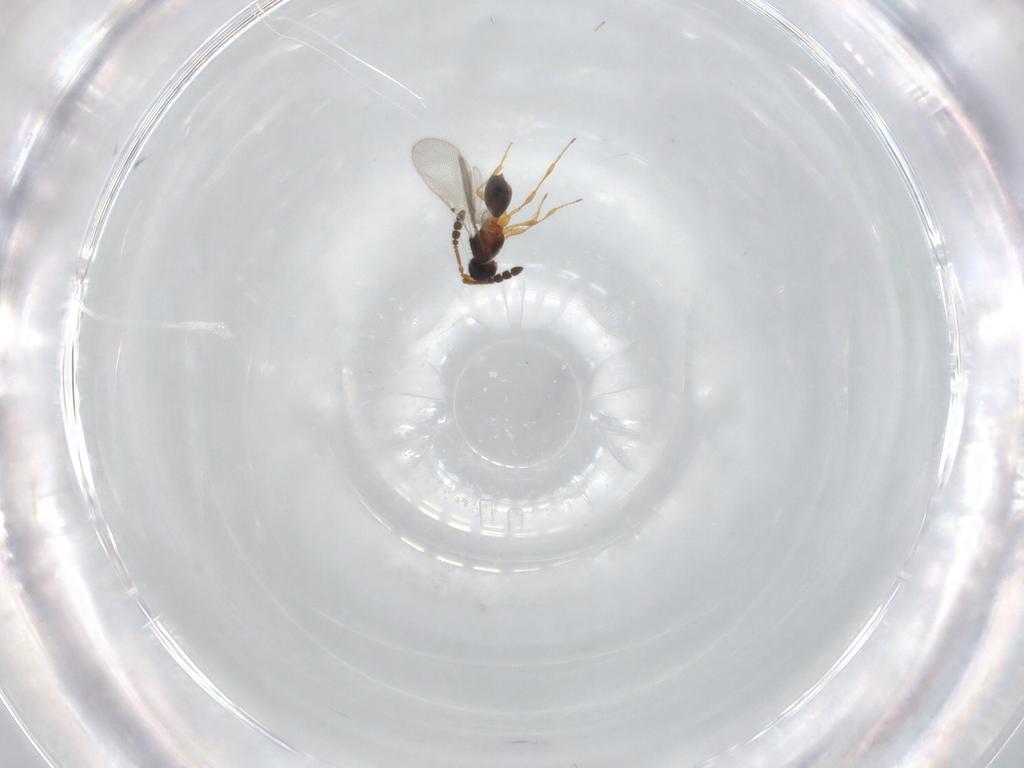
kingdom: Animalia
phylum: Arthropoda
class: Insecta
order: Hymenoptera
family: Diapriidae
